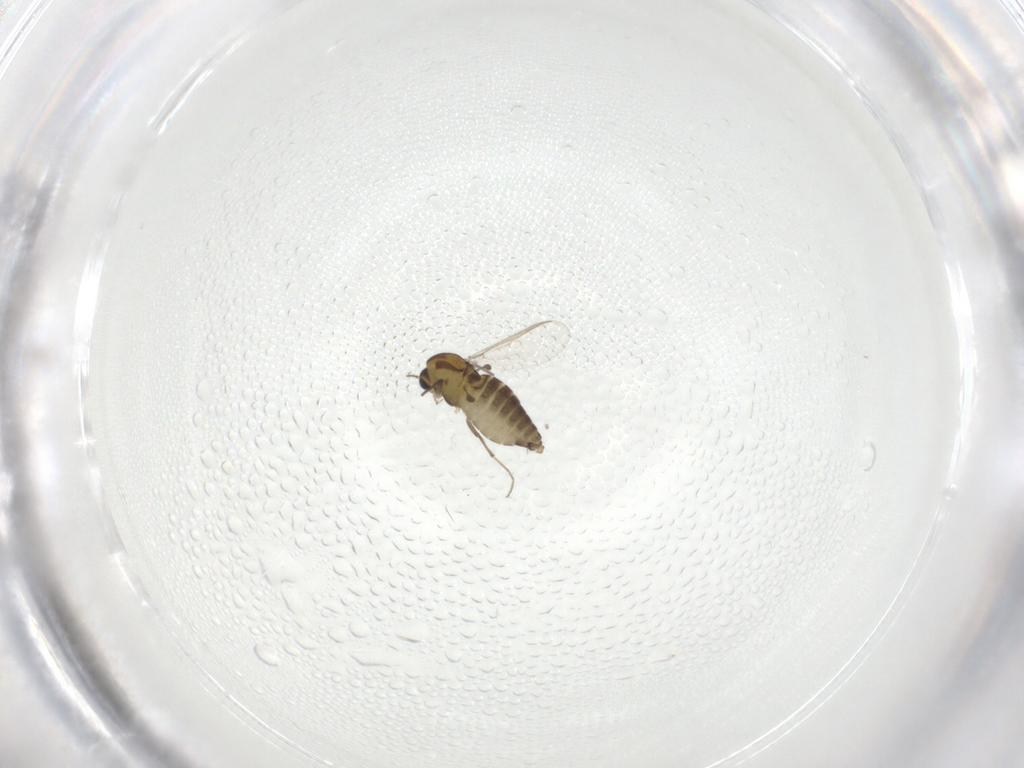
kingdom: Animalia
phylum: Arthropoda
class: Insecta
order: Diptera
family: Chironomidae
